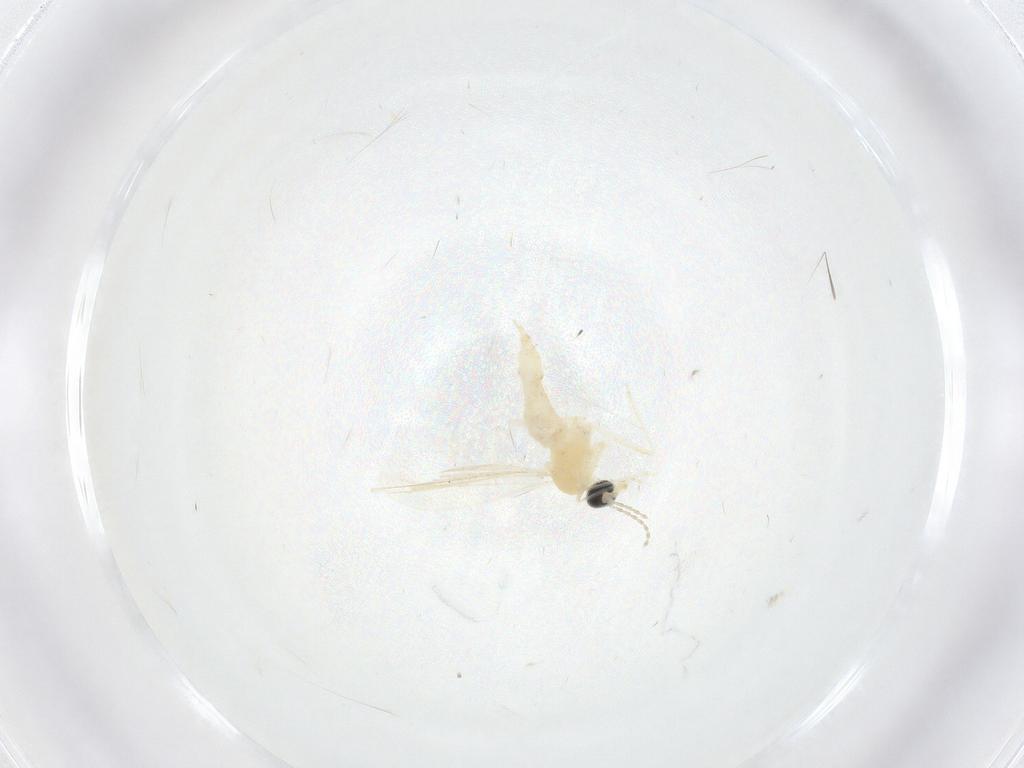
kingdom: Animalia
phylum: Arthropoda
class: Insecta
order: Diptera
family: Cecidomyiidae
